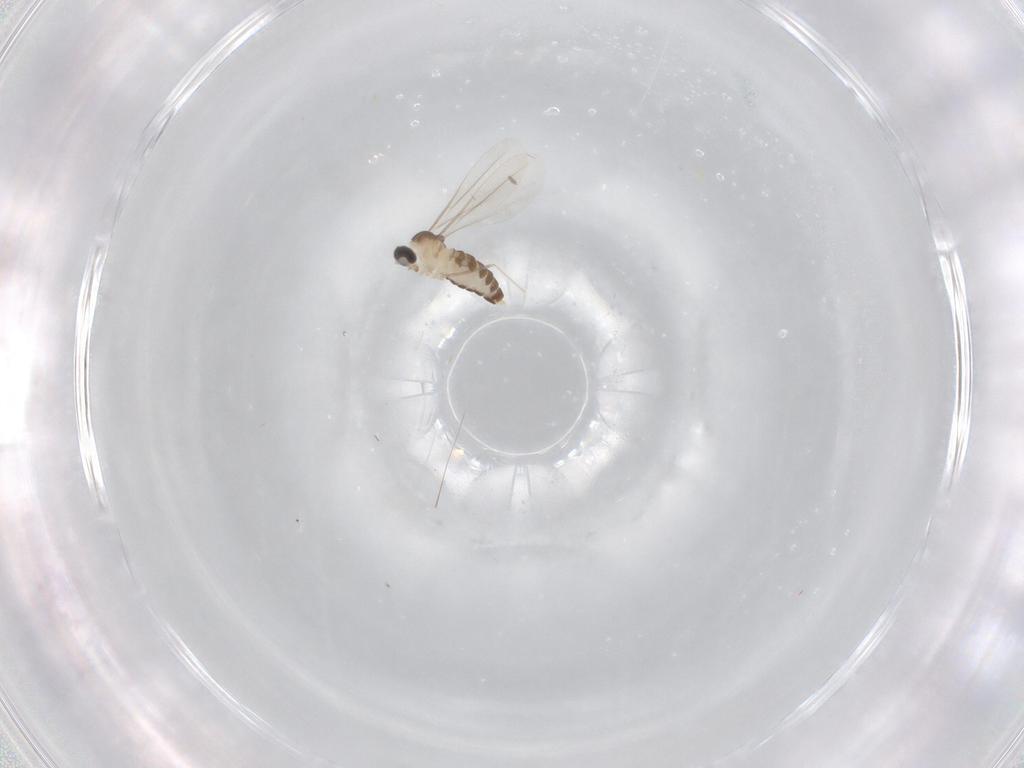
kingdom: Animalia
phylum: Arthropoda
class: Insecta
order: Diptera
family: Cecidomyiidae
